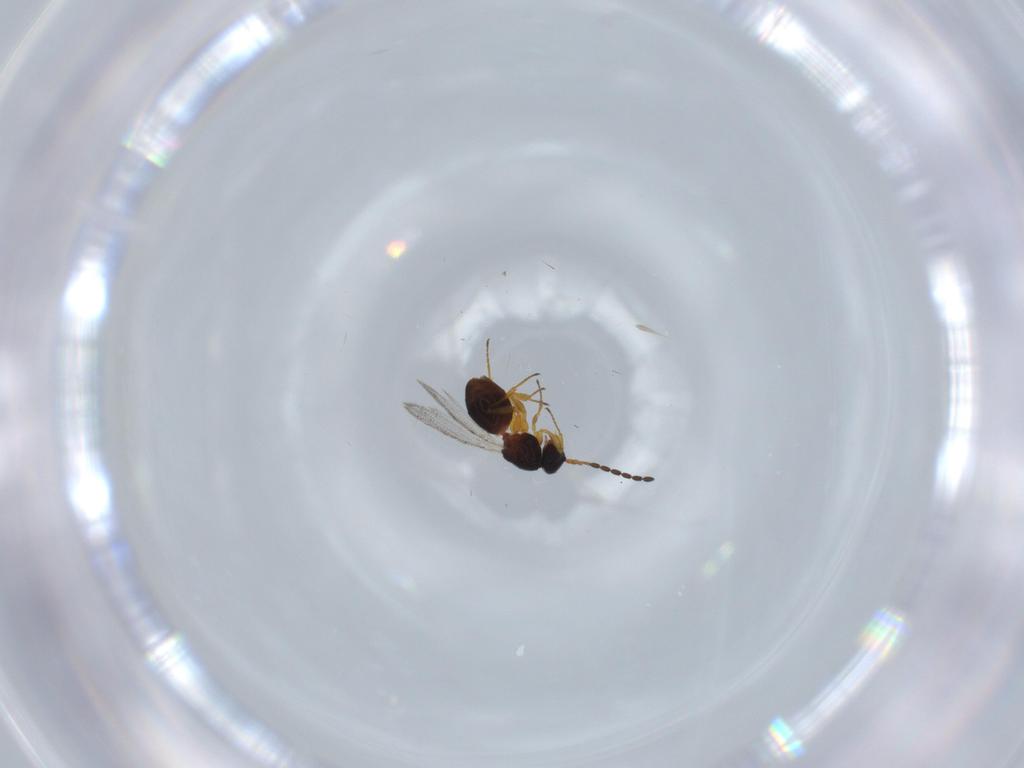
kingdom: Animalia
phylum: Arthropoda
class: Insecta
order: Hymenoptera
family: Figitidae
